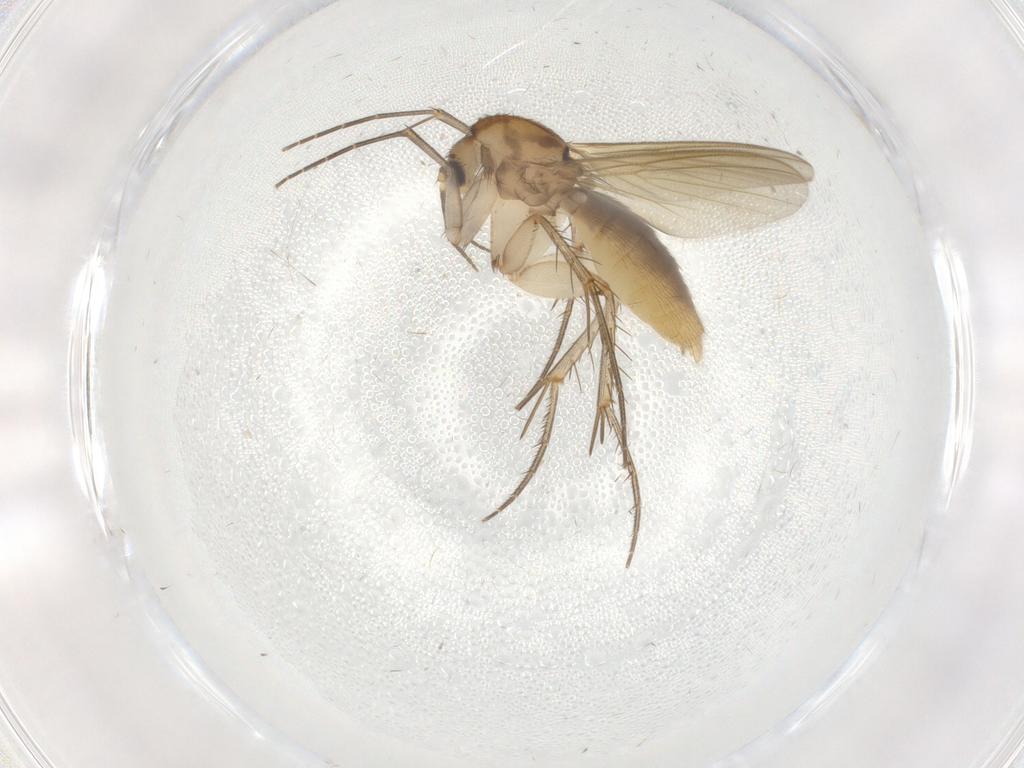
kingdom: Animalia
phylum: Arthropoda
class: Insecta
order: Diptera
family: Mycetophilidae
